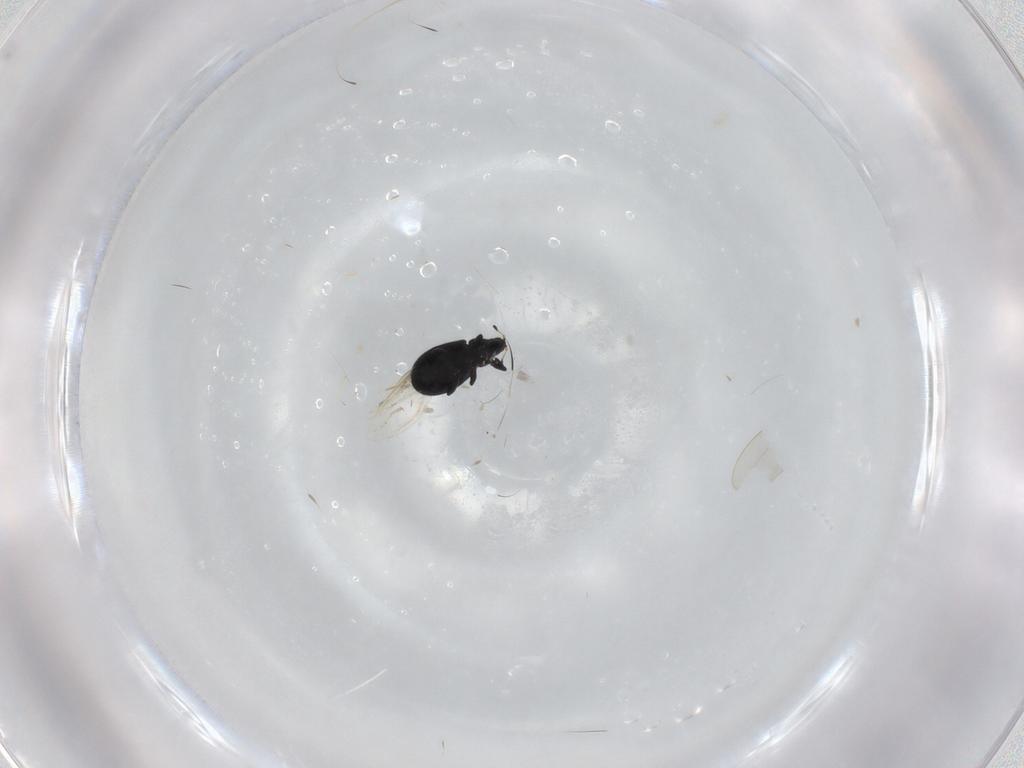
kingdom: Animalia
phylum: Arthropoda
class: Insecta
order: Coleoptera
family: Curculionidae
